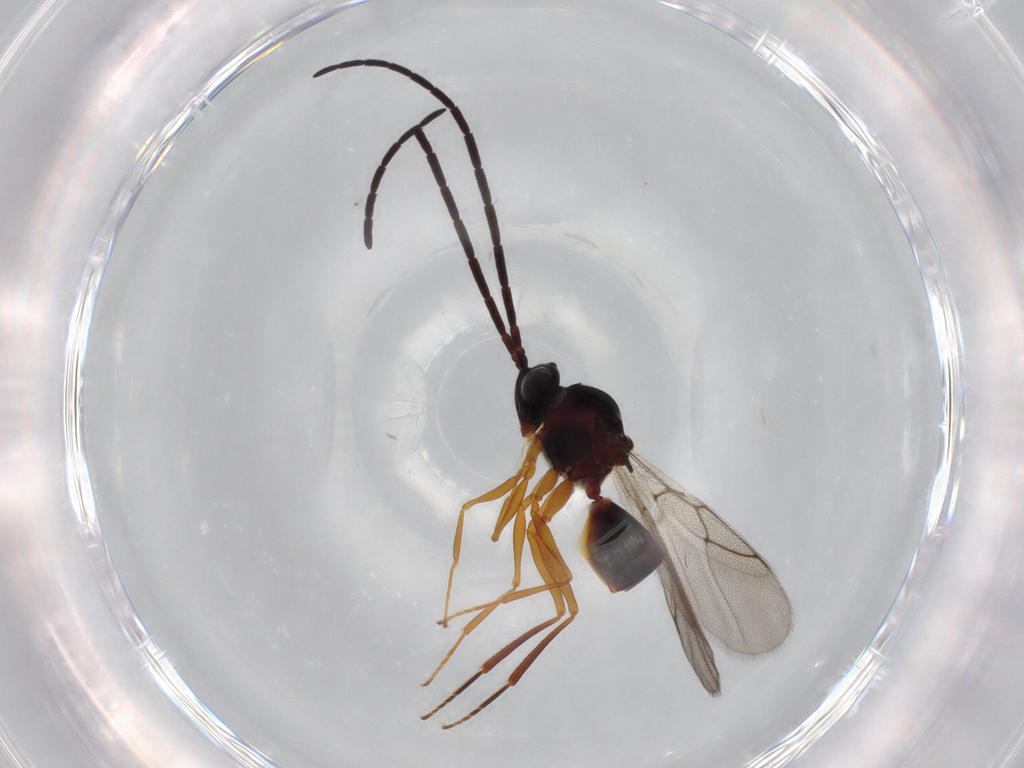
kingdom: Animalia
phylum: Arthropoda
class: Insecta
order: Hymenoptera
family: Figitidae
